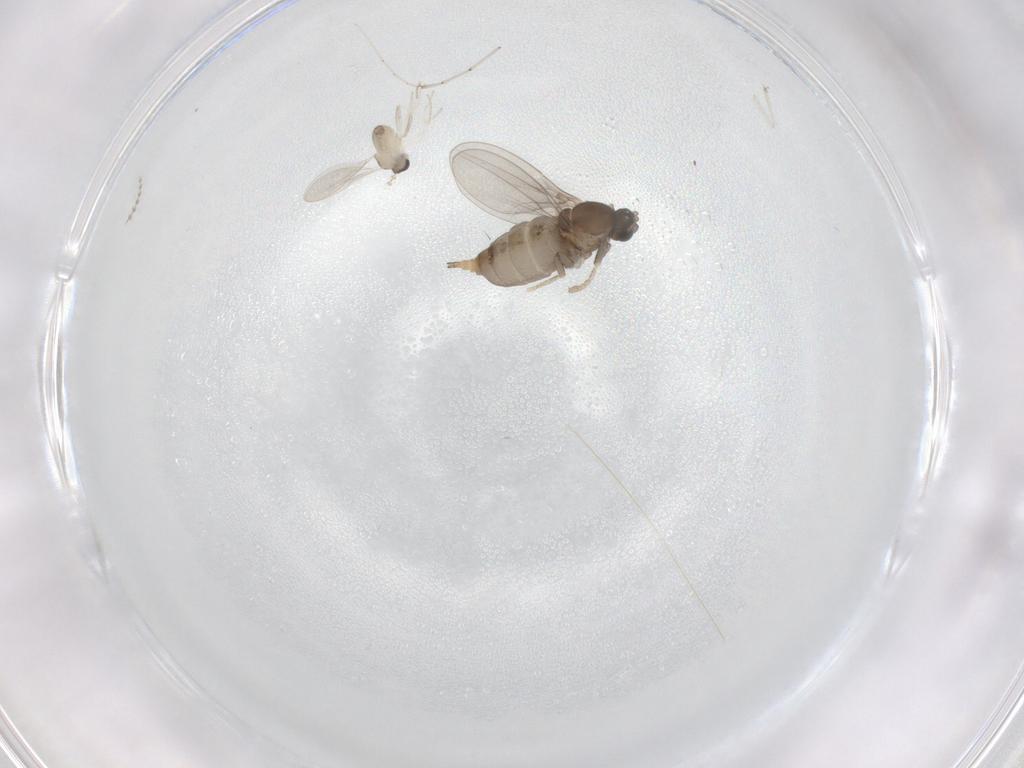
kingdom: Animalia
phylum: Arthropoda
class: Insecta
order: Diptera
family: Cecidomyiidae
